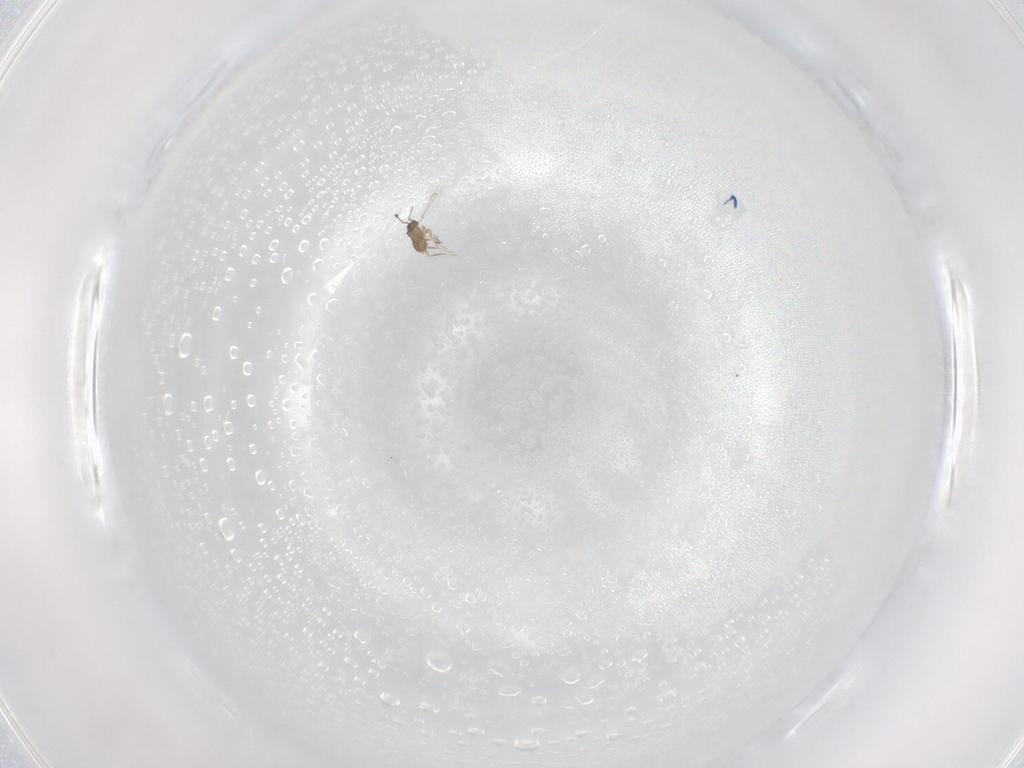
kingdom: Animalia
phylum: Arthropoda
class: Insecta
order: Hymenoptera
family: Mymaridae
